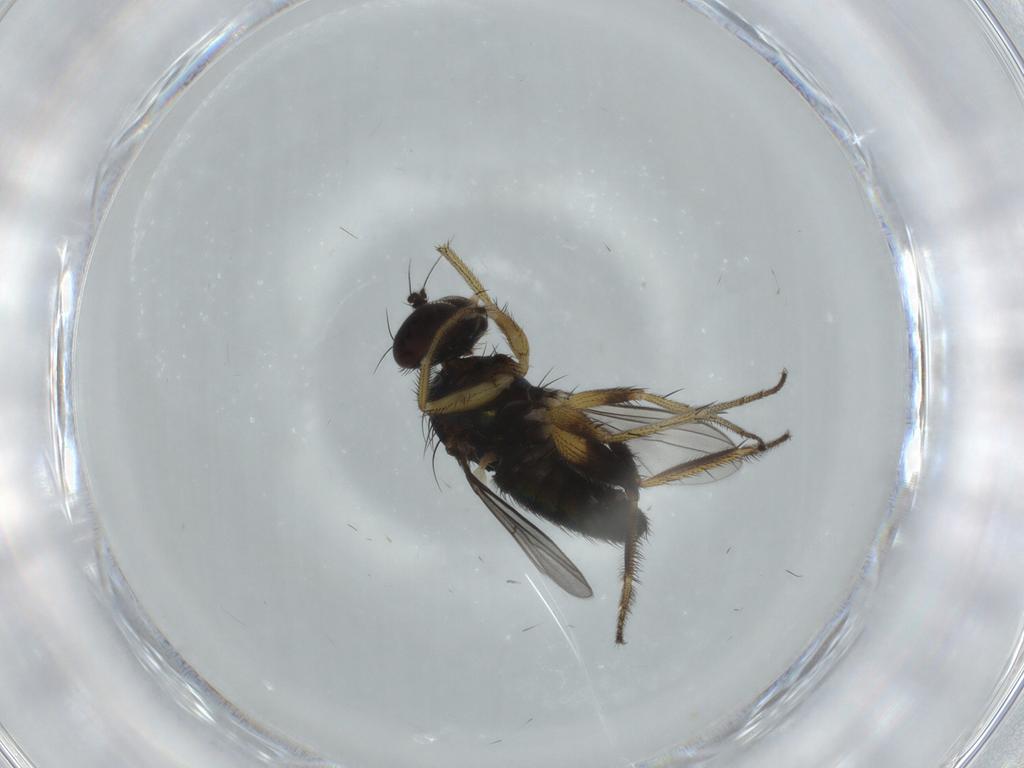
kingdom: Animalia
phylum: Arthropoda
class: Insecta
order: Diptera
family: Dolichopodidae
